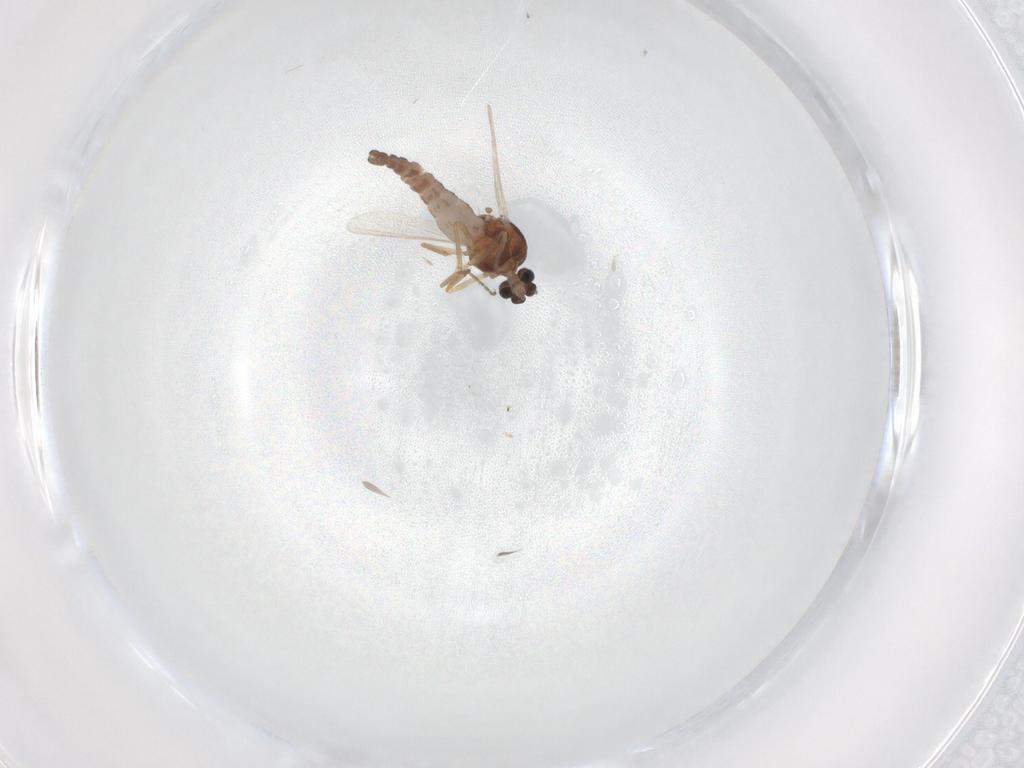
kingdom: Animalia
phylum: Arthropoda
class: Insecta
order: Diptera
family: Ceratopogonidae
